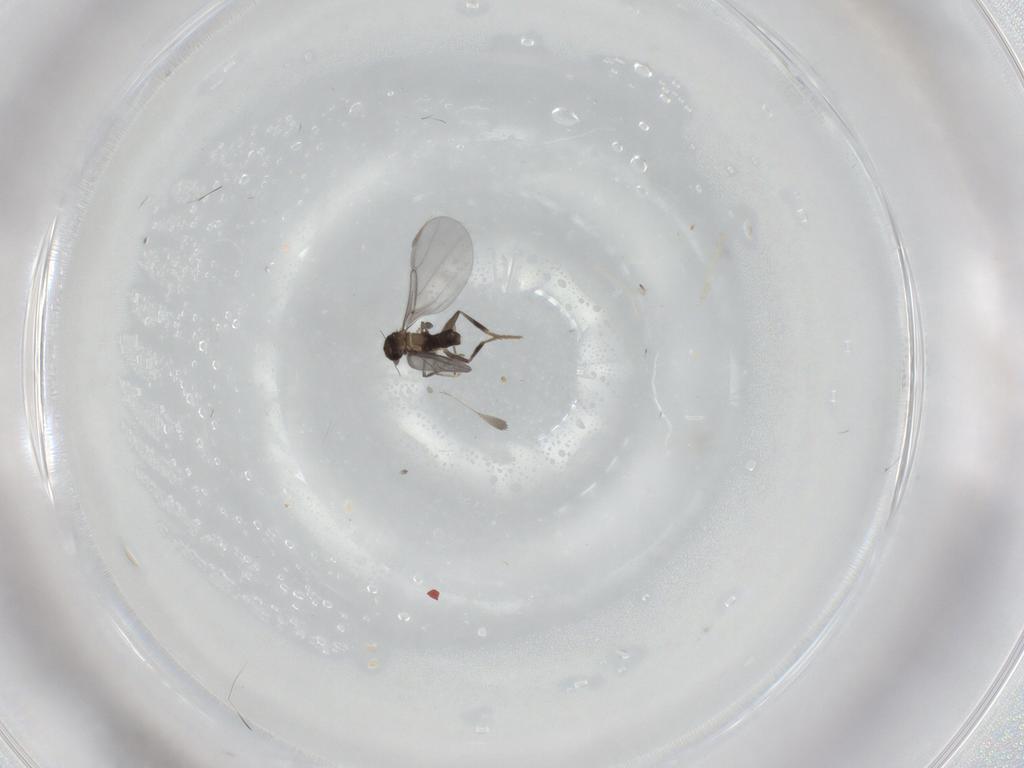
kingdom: Animalia
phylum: Arthropoda
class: Insecta
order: Diptera
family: Phoridae
